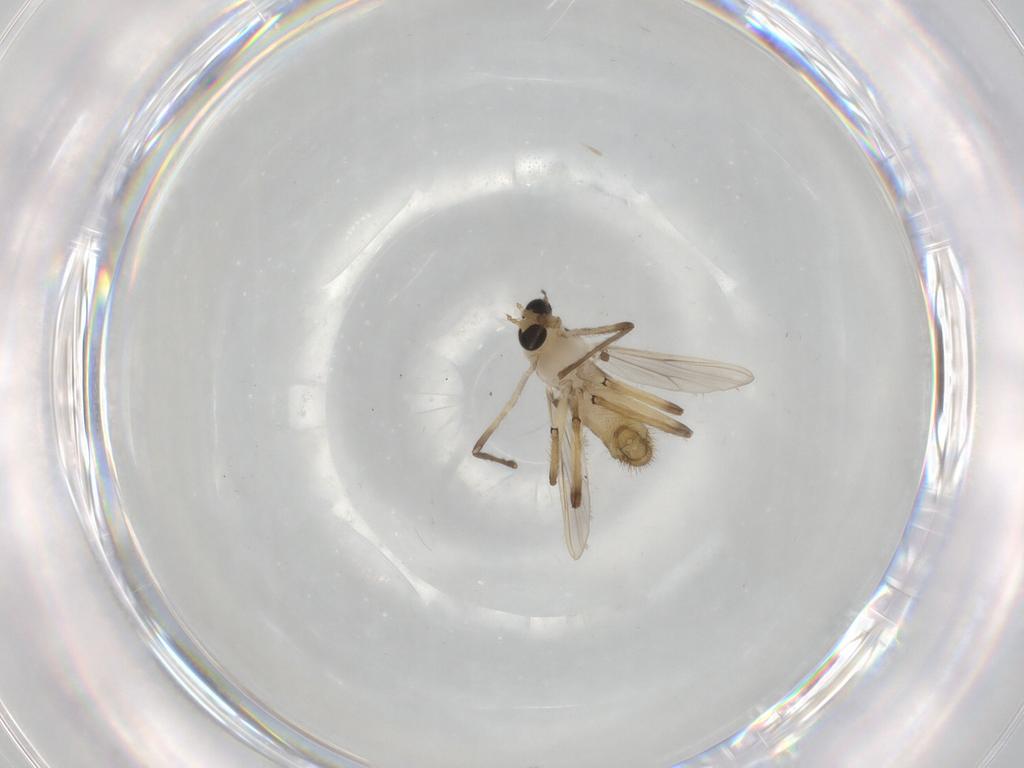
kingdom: Animalia
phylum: Arthropoda
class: Insecta
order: Diptera
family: Chironomidae
